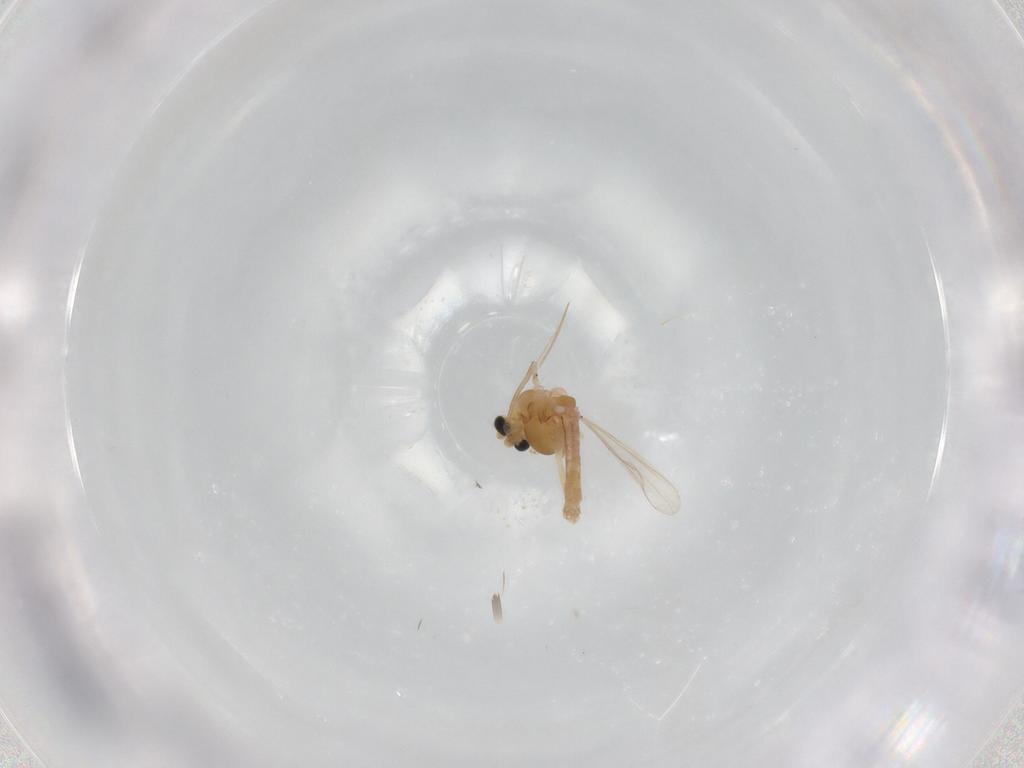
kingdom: Animalia
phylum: Arthropoda
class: Insecta
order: Diptera
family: Chironomidae
